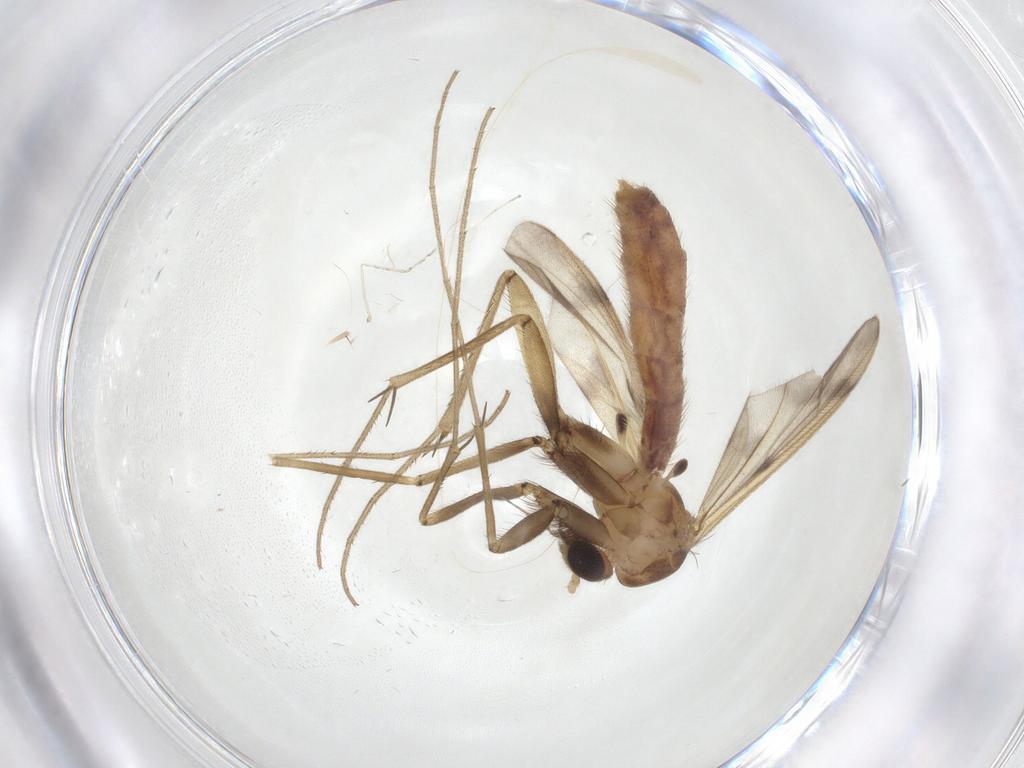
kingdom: Animalia
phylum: Arthropoda
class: Insecta
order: Diptera
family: Mycetophilidae
